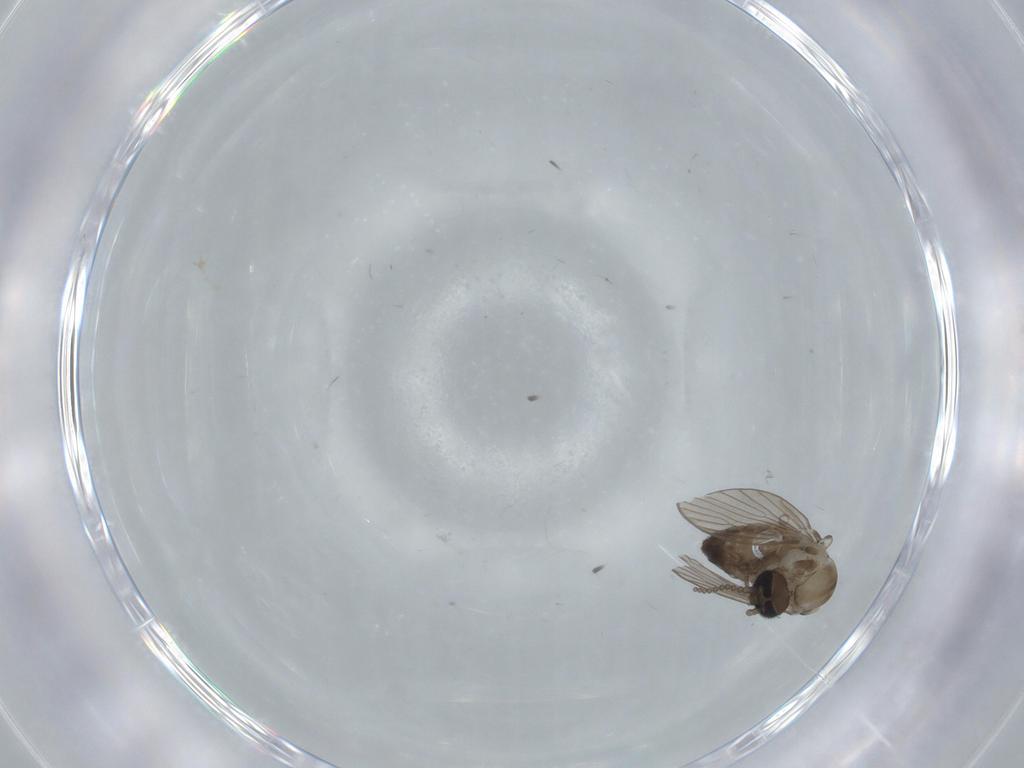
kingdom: Animalia
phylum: Arthropoda
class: Insecta
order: Diptera
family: Psychodidae
